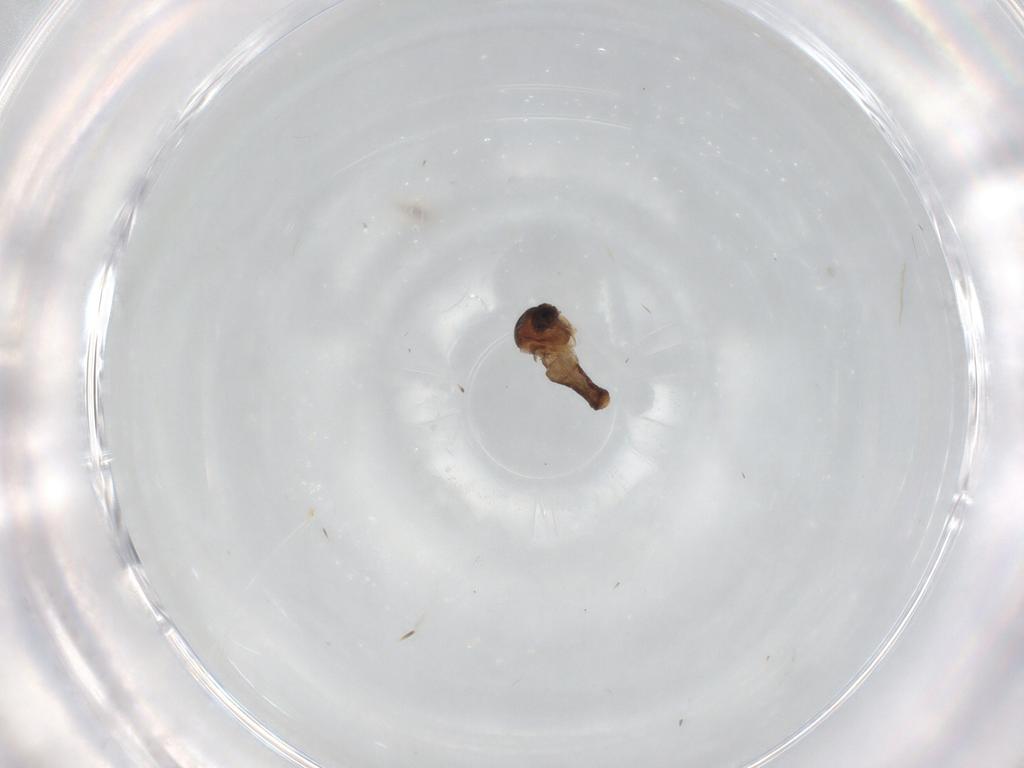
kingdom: Animalia
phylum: Arthropoda
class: Insecta
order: Diptera
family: Ceratopogonidae
